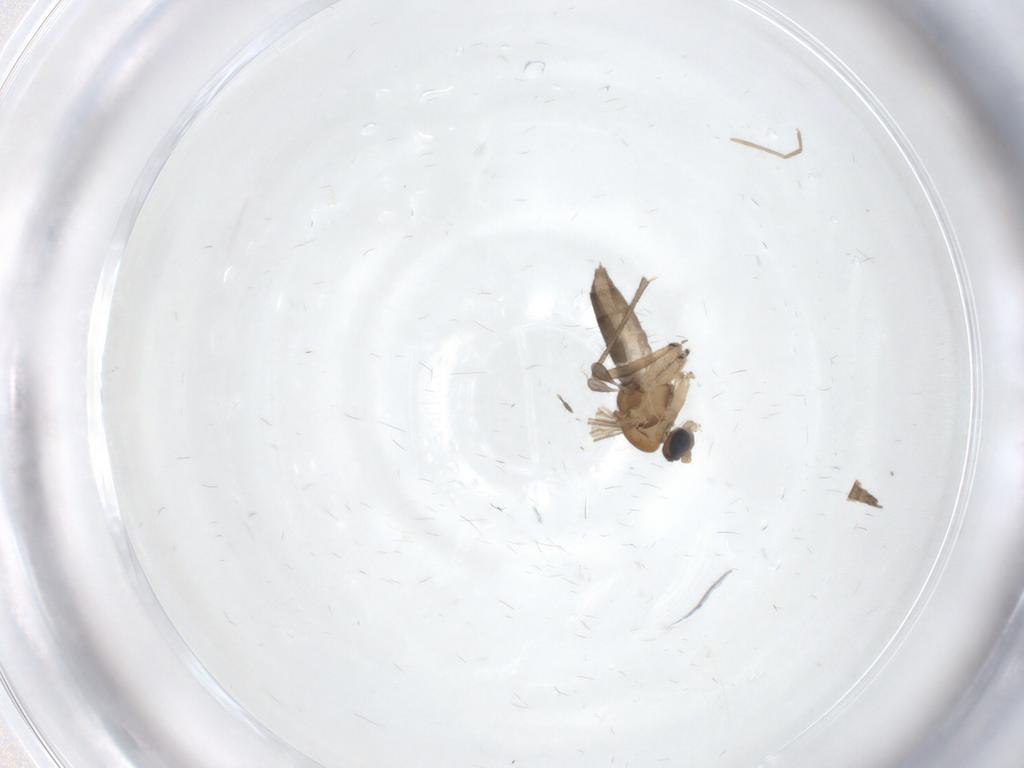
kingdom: Animalia
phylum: Arthropoda
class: Insecta
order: Diptera
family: Sciaridae
